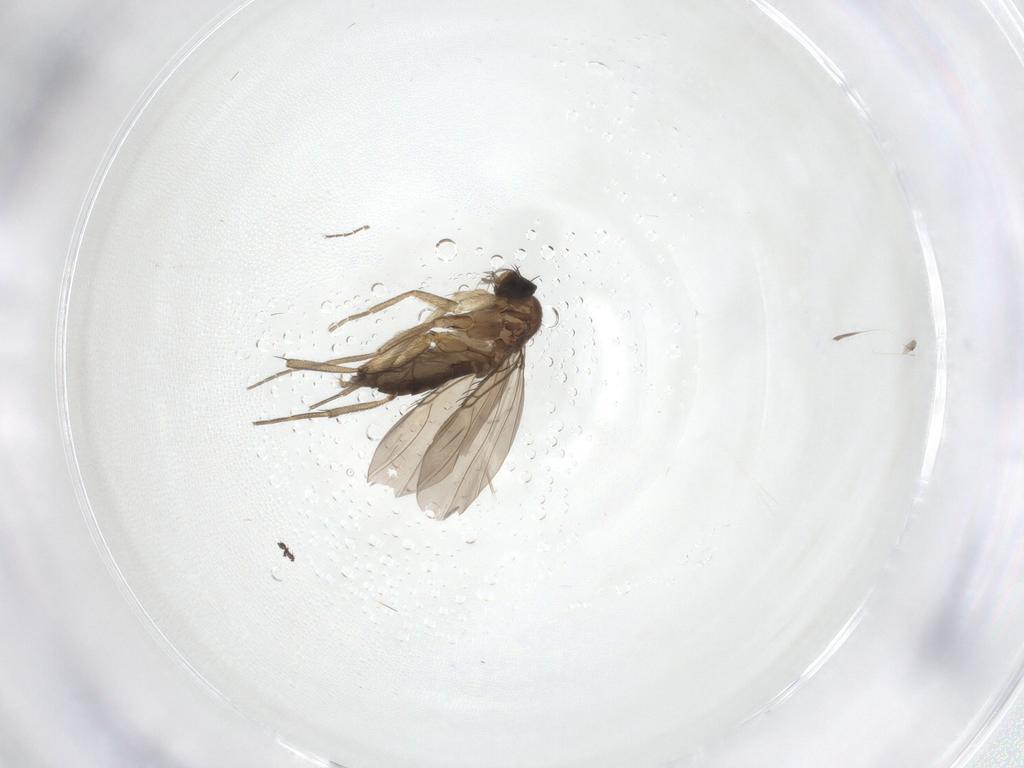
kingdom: Animalia
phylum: Arthropoda
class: Insecta
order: Diptera
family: Phoridae
